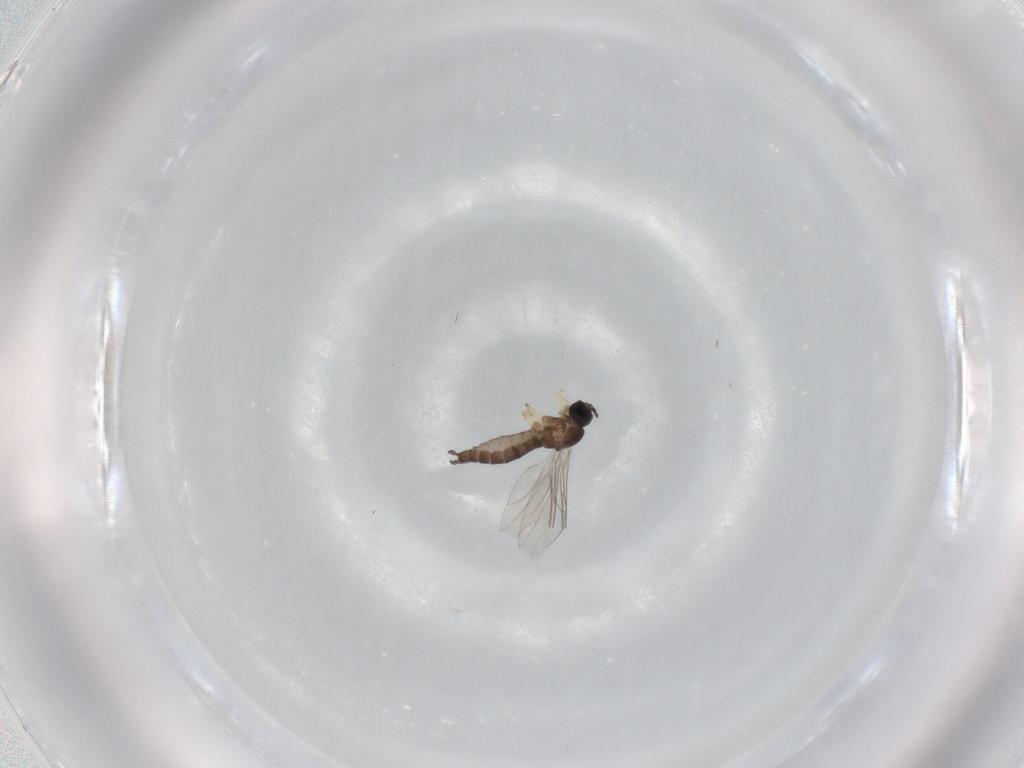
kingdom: Animalia
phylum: Arthropoda
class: Insecta
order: Diptera
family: Sciaridae
